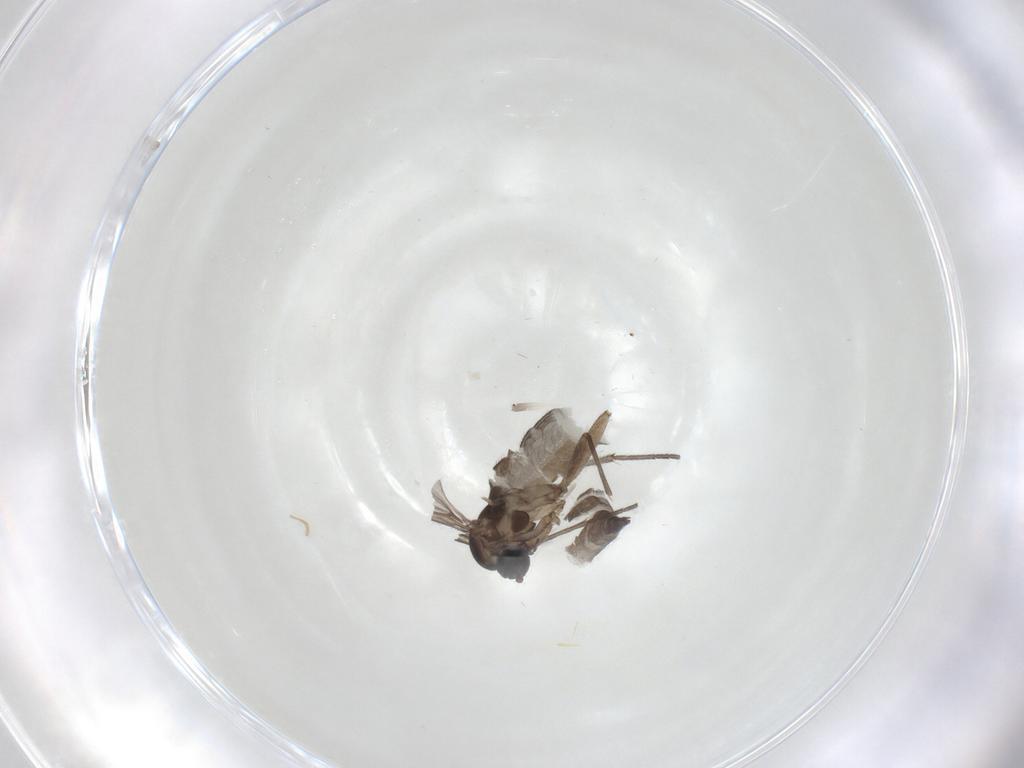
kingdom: Animalia
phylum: Arthropoda
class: Insecta
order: Diptera
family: Sciaridae
